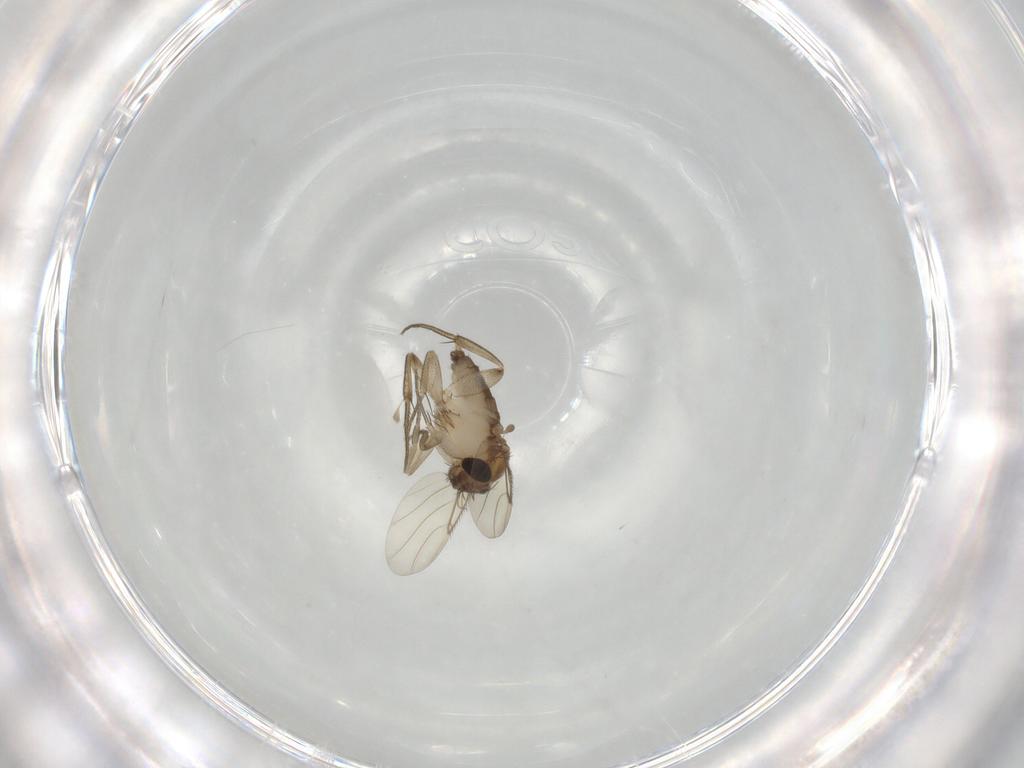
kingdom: Animalia
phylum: Arthropoda
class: Insecta
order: Diptera
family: Phoridae
